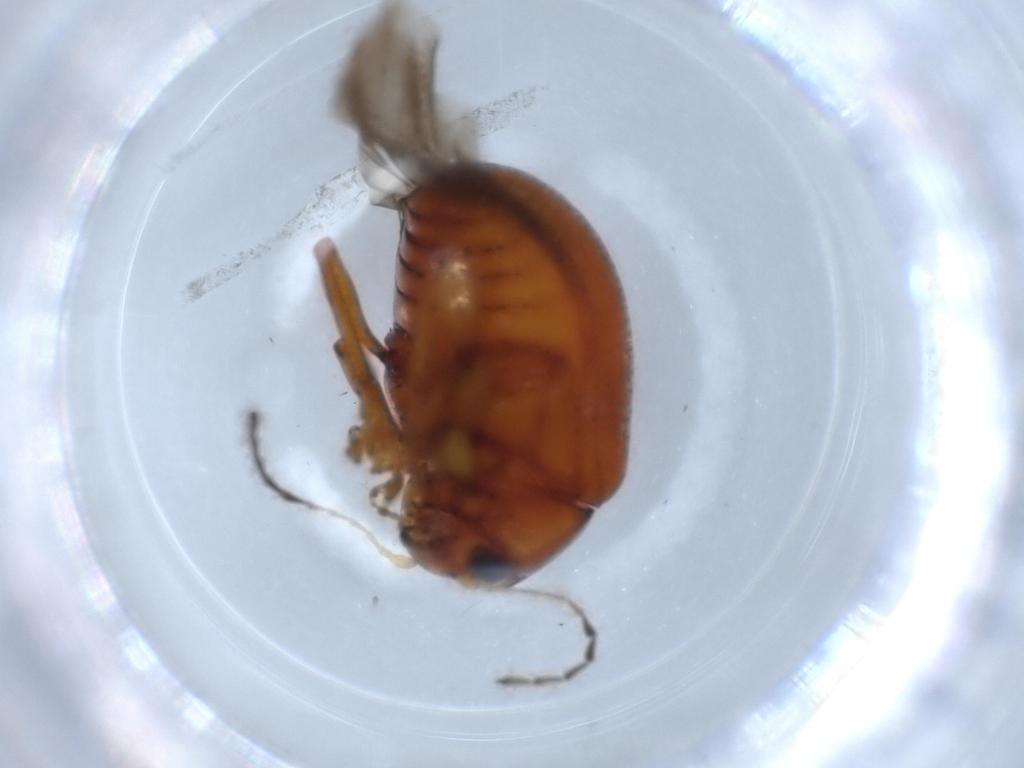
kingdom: Animalia
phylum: Arthropoda
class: Insecta
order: Coleoptera
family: Chrysomelidae
